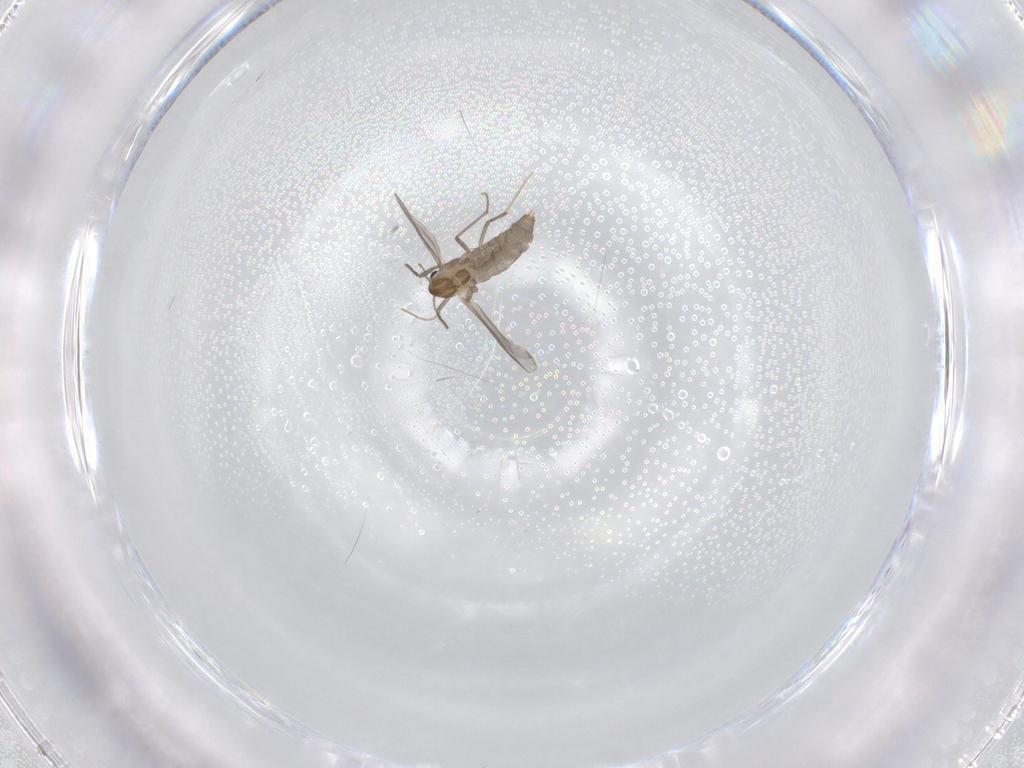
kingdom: Animalia
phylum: Arthropoda
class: Insecta
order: Diptera
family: Chironomidae
